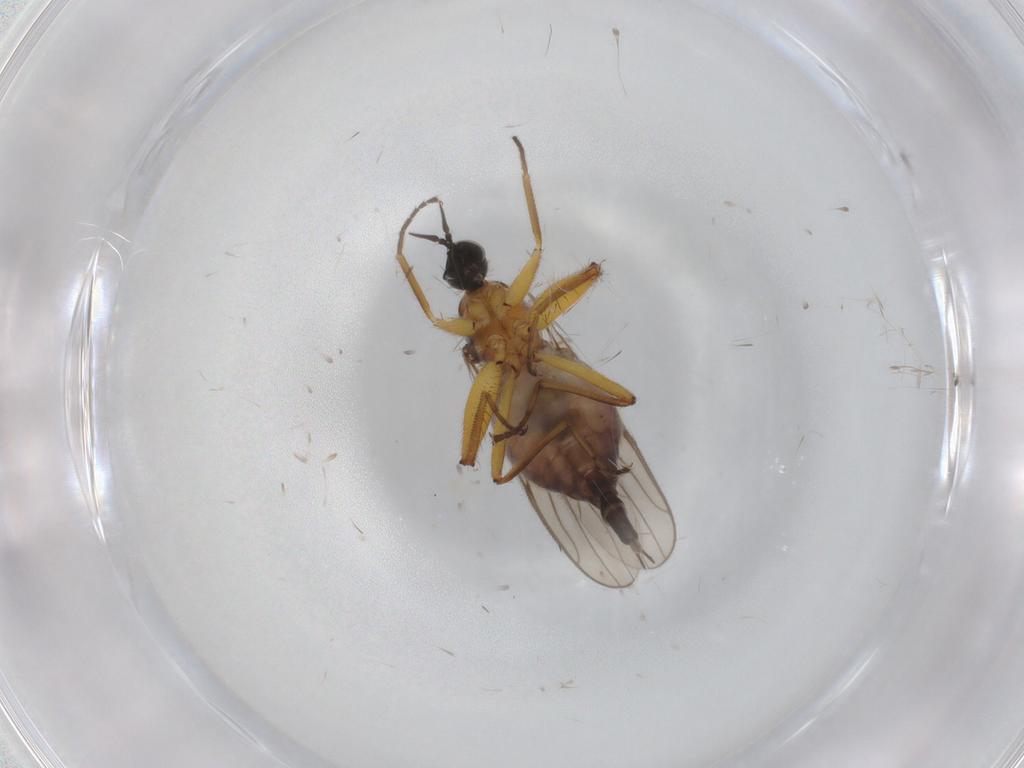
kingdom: Animalia
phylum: Arthropoda
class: Insecta
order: Diptera
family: Hybotidae
